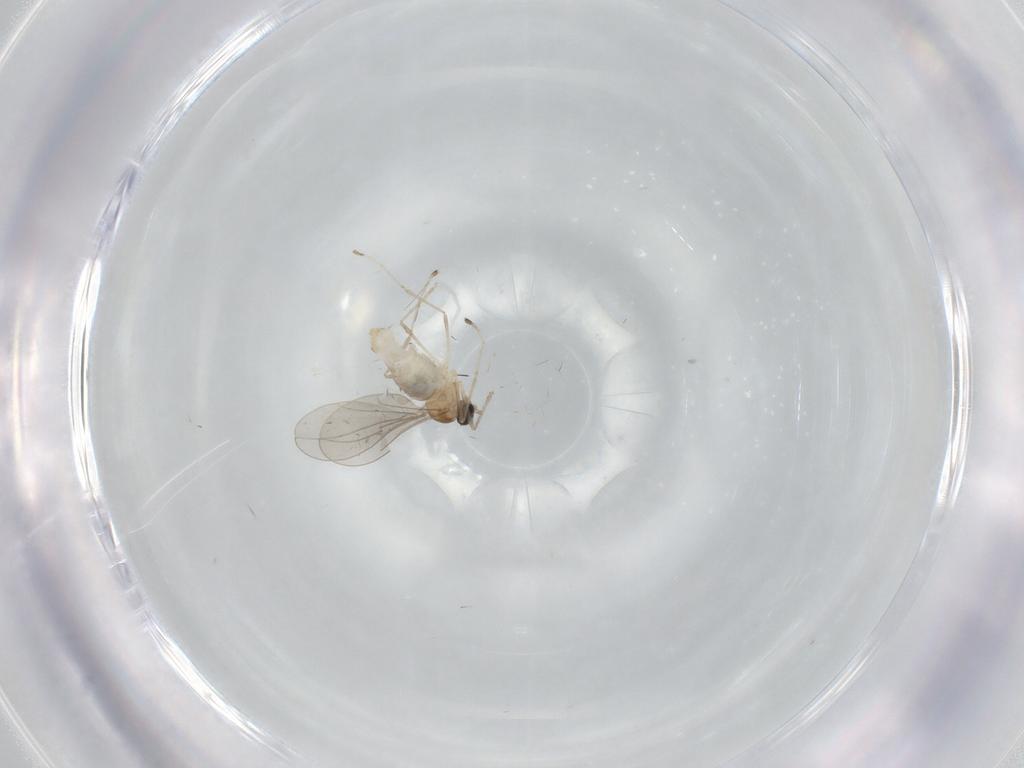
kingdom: Animalia
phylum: Arthropoda
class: Insecta
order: Diptera
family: Cecidomyiidae
